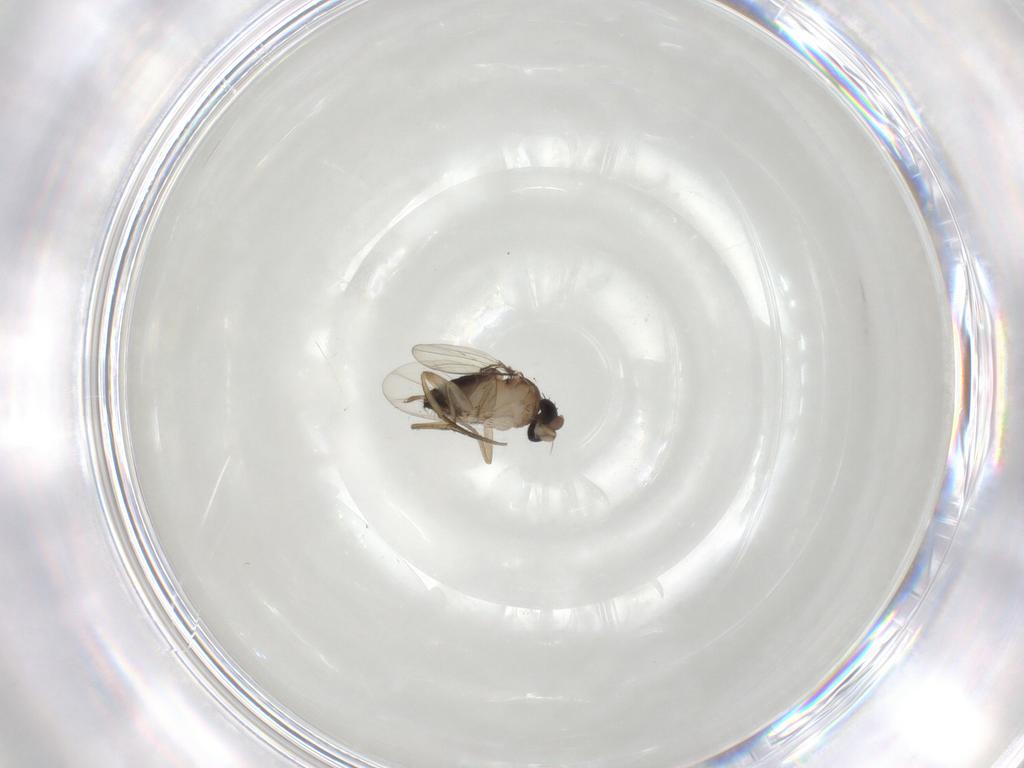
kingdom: Animalia
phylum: Arthropoda
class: Insecta
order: Diptera
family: Phoridae
